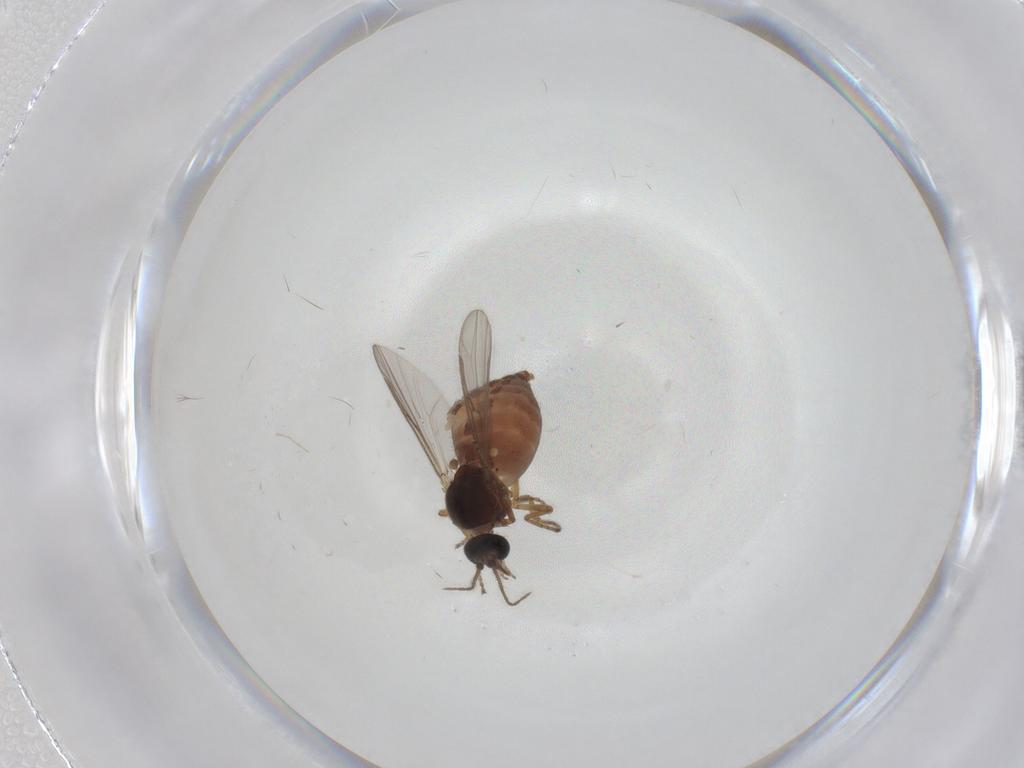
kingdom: Animalia
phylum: Arthropoda
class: Insecta
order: Diptera
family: Ceratopogonidae
